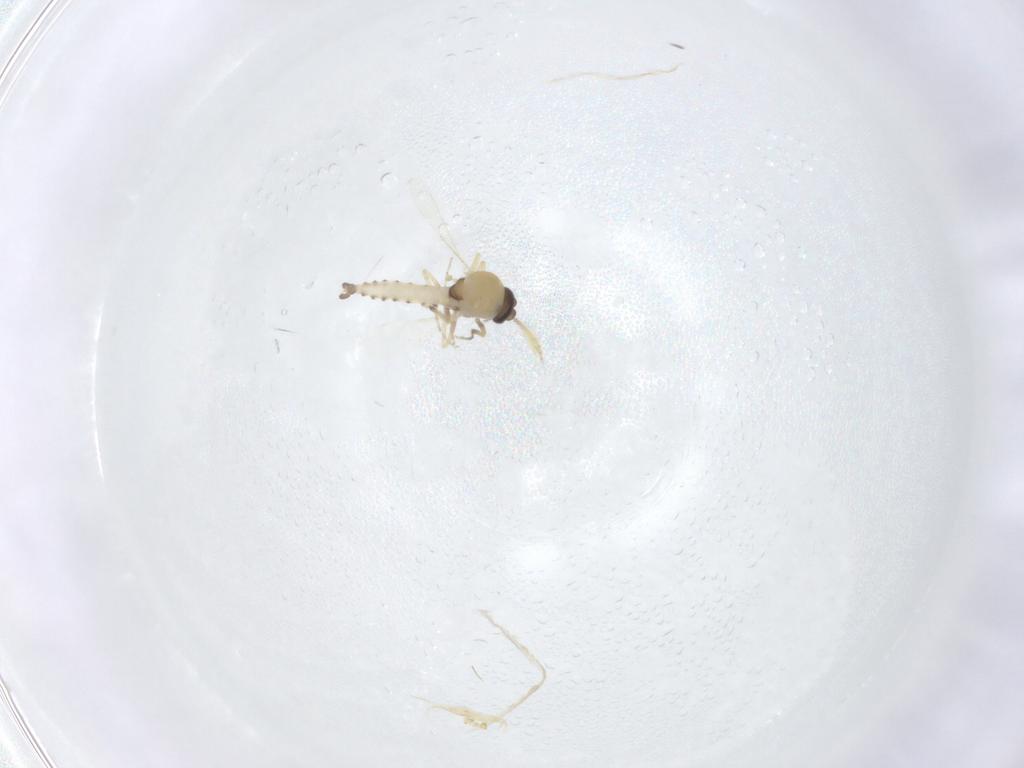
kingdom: Animalia
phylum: Arthropoda
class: Insecta
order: Diptera
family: Ceratopogonidae
